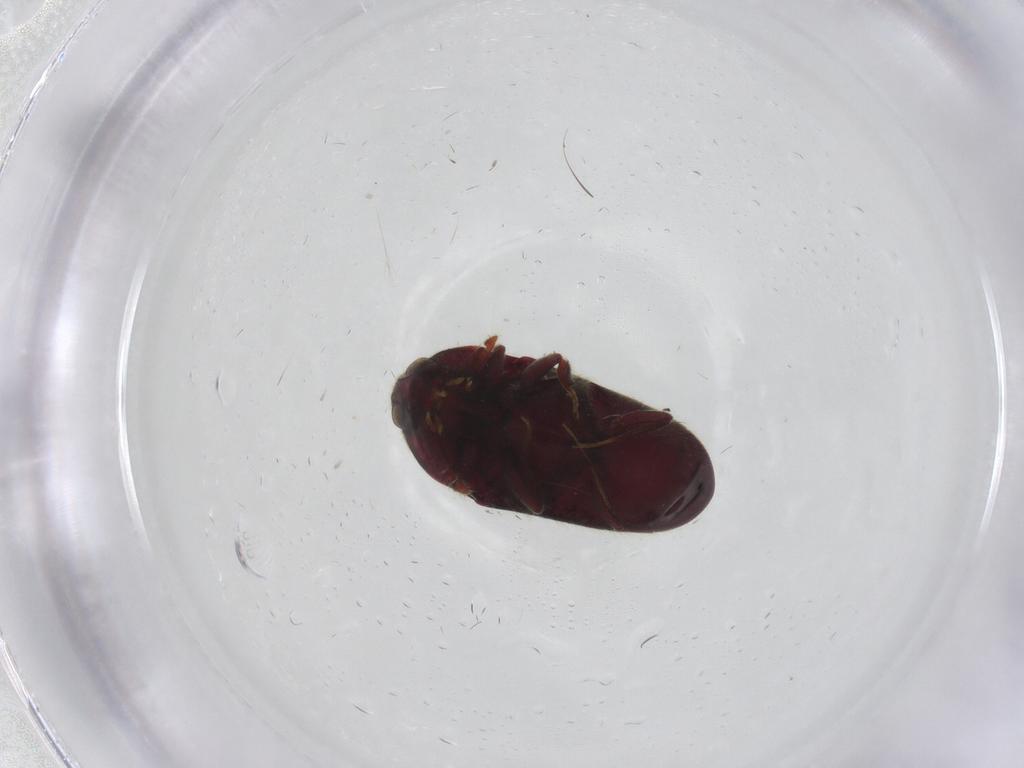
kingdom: Animalia
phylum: Arthropoda
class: Insecta
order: Coleoptera
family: Throscidae
